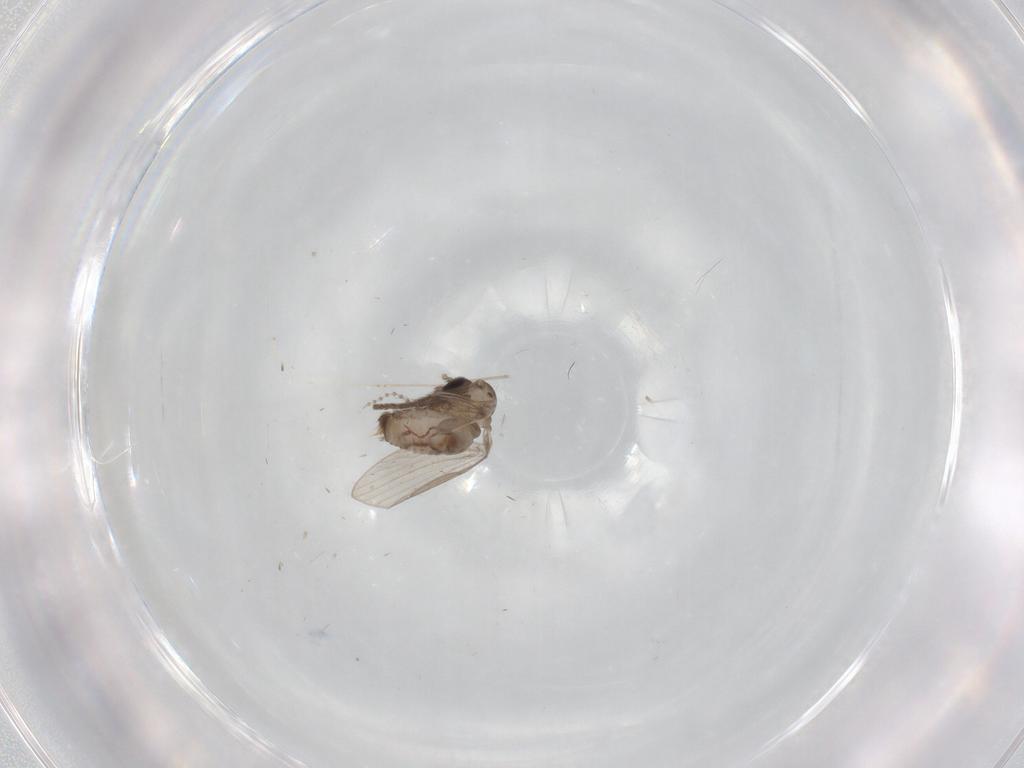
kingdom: Animalia
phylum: Arthropoda
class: Insecta
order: Diptera
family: Psychodidae
